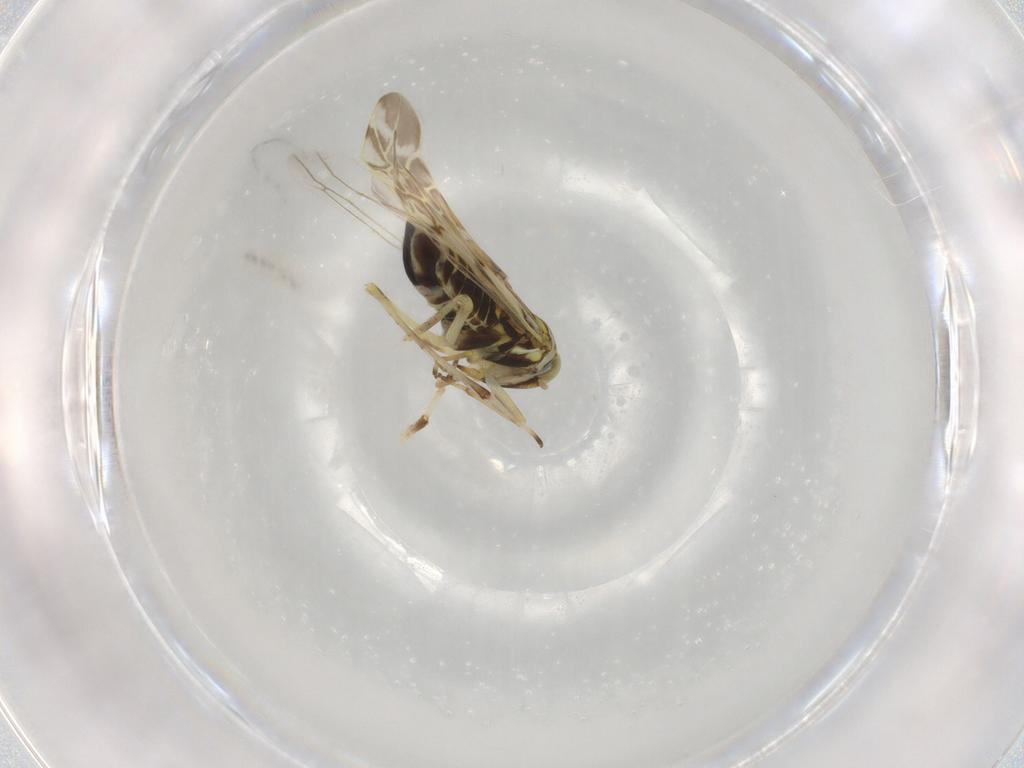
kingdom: Animalia
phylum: Arthropoda
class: Insecta
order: Hemiptera
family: Cicadellidae
